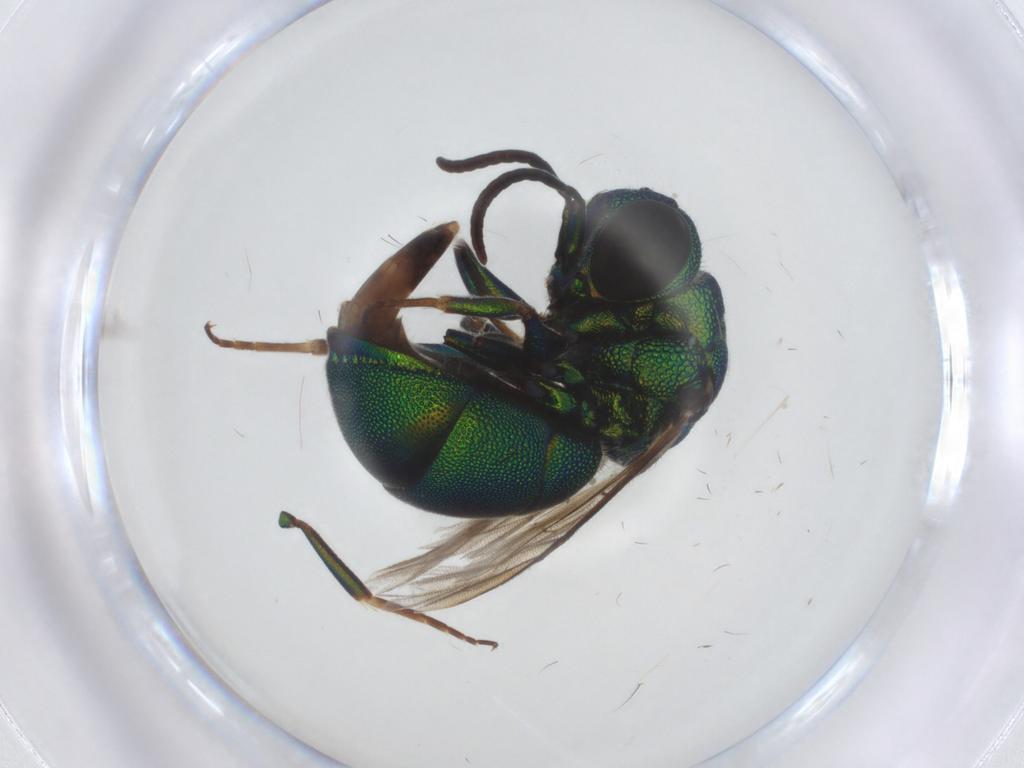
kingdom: Animalia
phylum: Arthropoda
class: Insecta
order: Hymenoptera
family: Chrysididae
